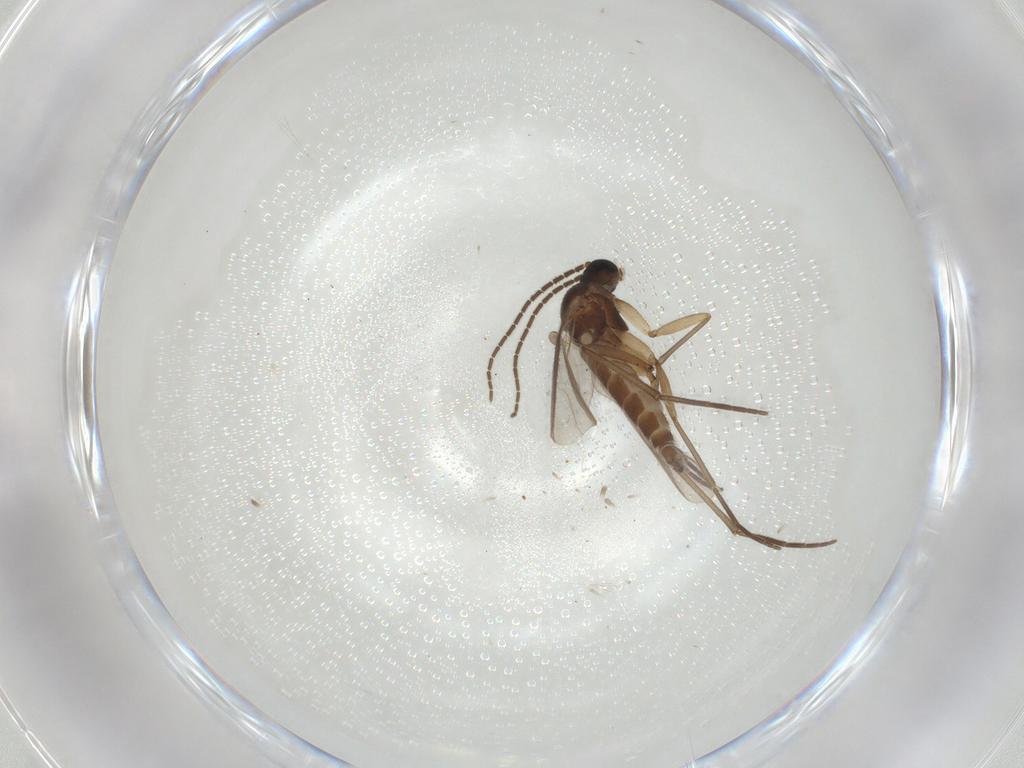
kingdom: Animalia
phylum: Arthropoda
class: Insecta
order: Diptera
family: Sciaridae
